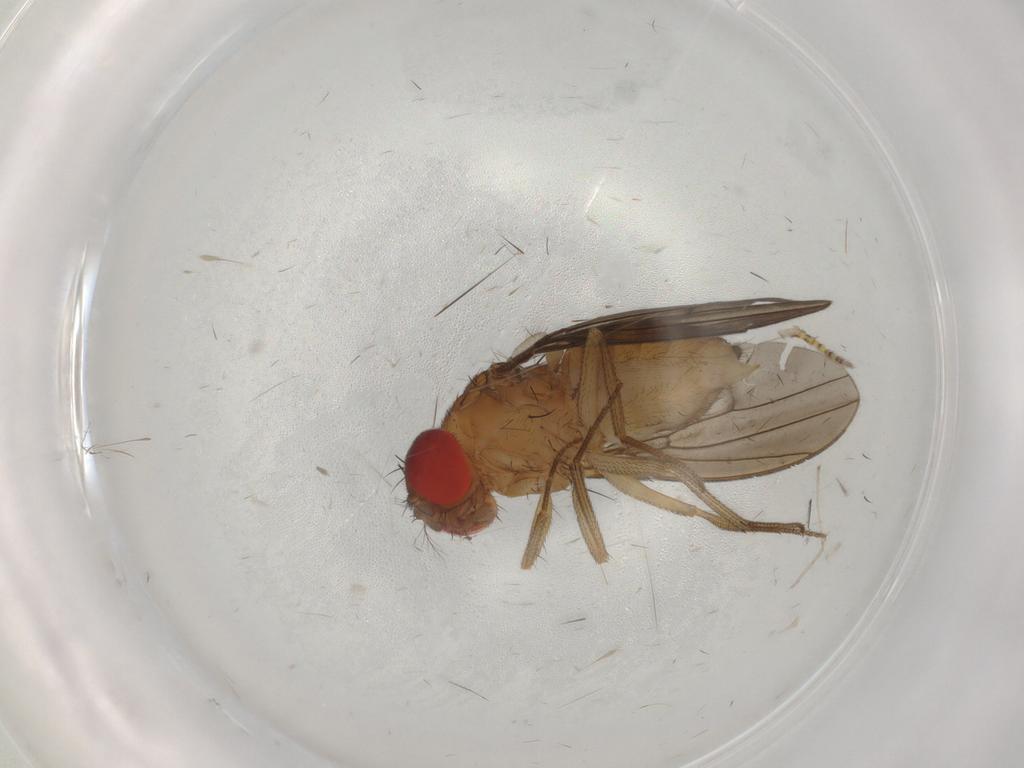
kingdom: Animalia
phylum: Arthropoda
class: Insecta
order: Diptera
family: Drosophilidae
